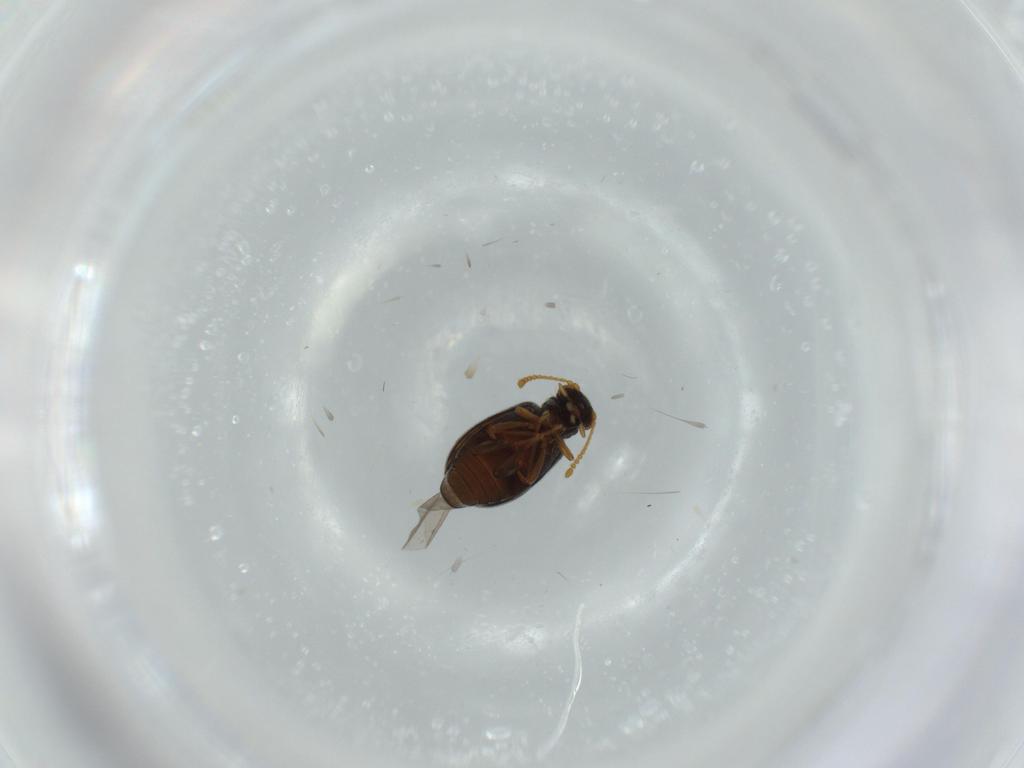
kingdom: Animalia
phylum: Arthropoda
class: Insecta
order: Coleoptera
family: Aderidae
